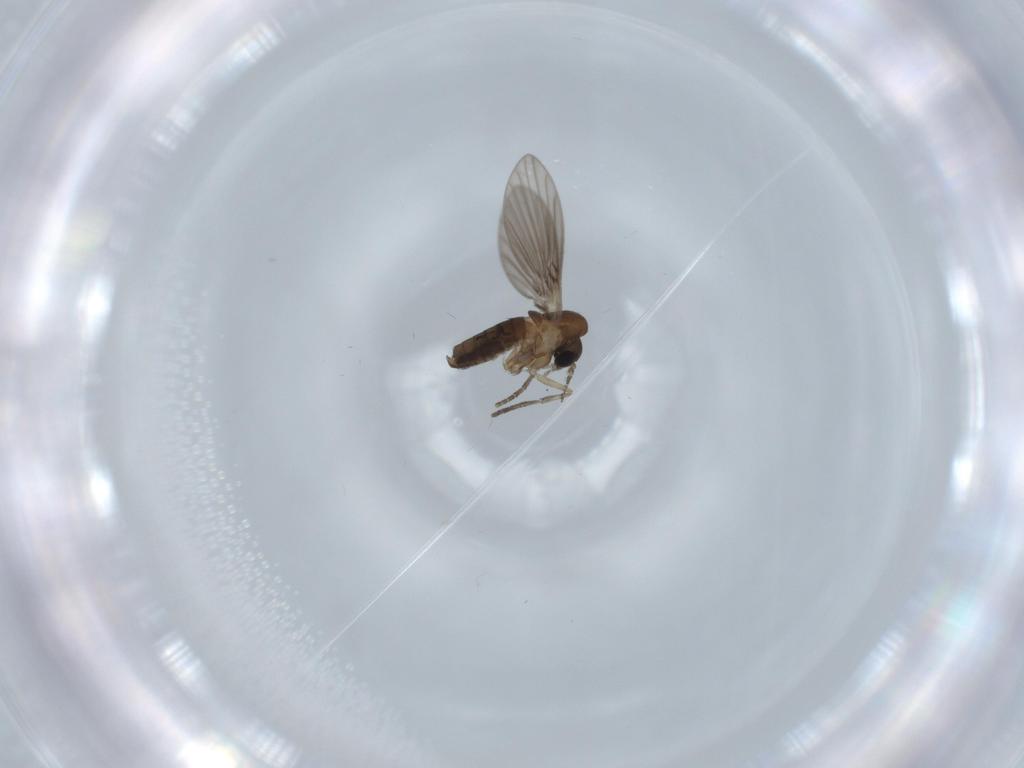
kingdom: Animalia
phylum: Arthropoda
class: Insecta
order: Diptera
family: Psychodidae
